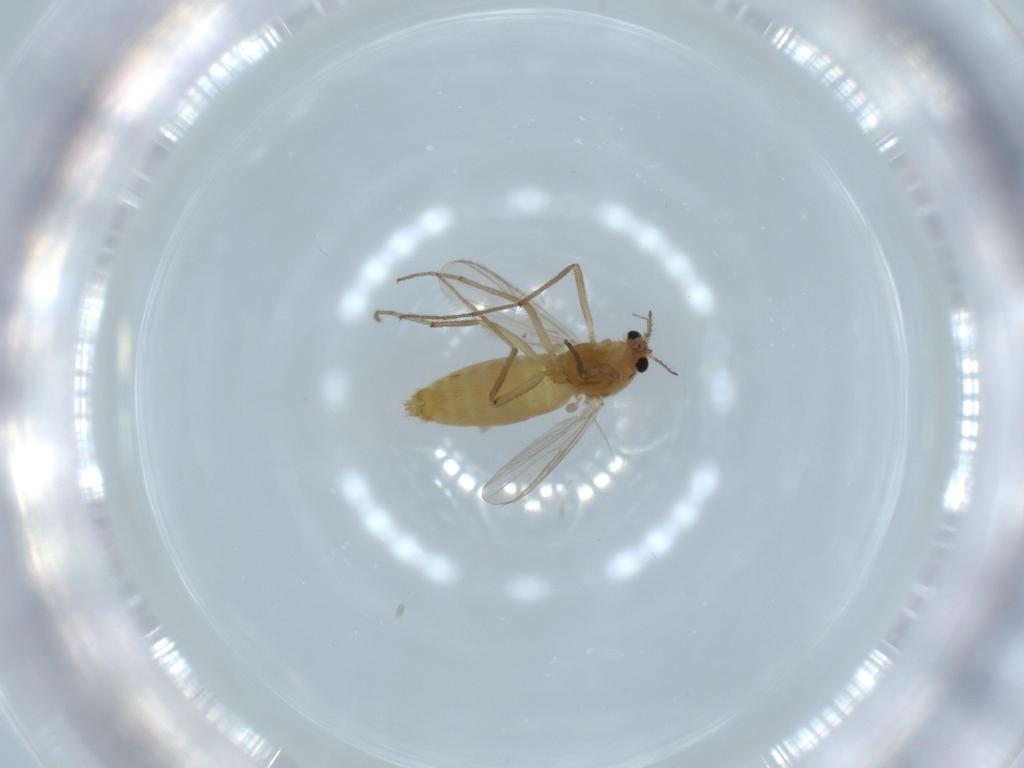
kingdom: Animalia
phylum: Arthropoda
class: Insecta
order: Diptera
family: Chironomidae
